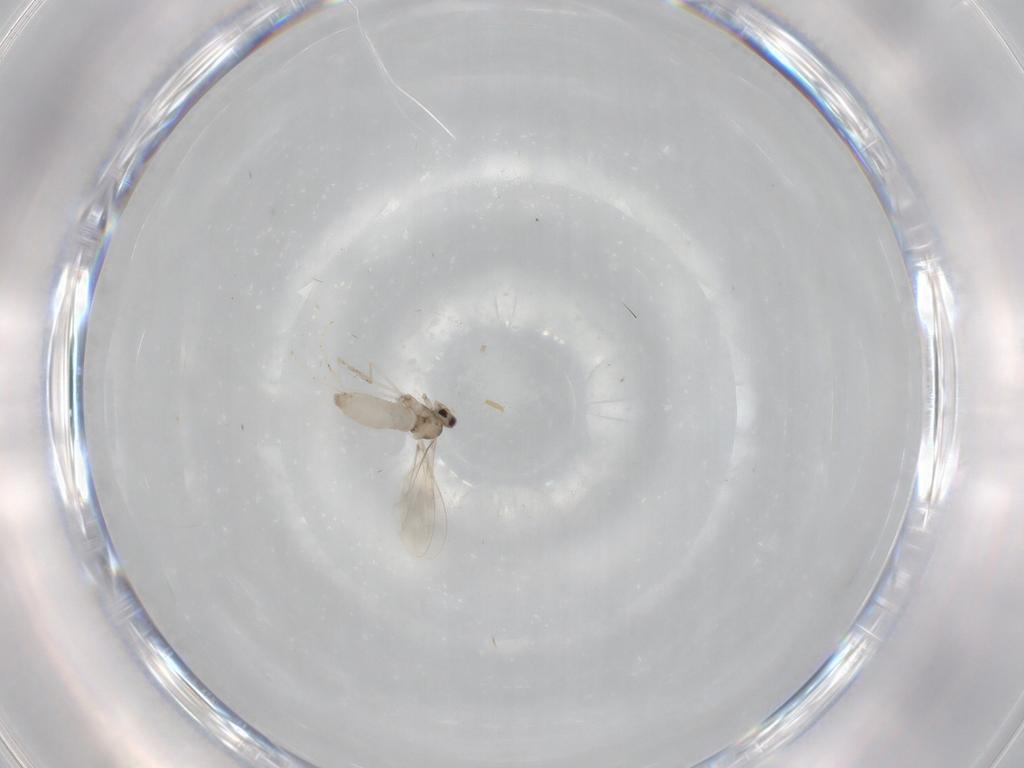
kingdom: Animalia
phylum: Arthropoda
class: Insecta
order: Diptera
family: Cecidomyiidae
